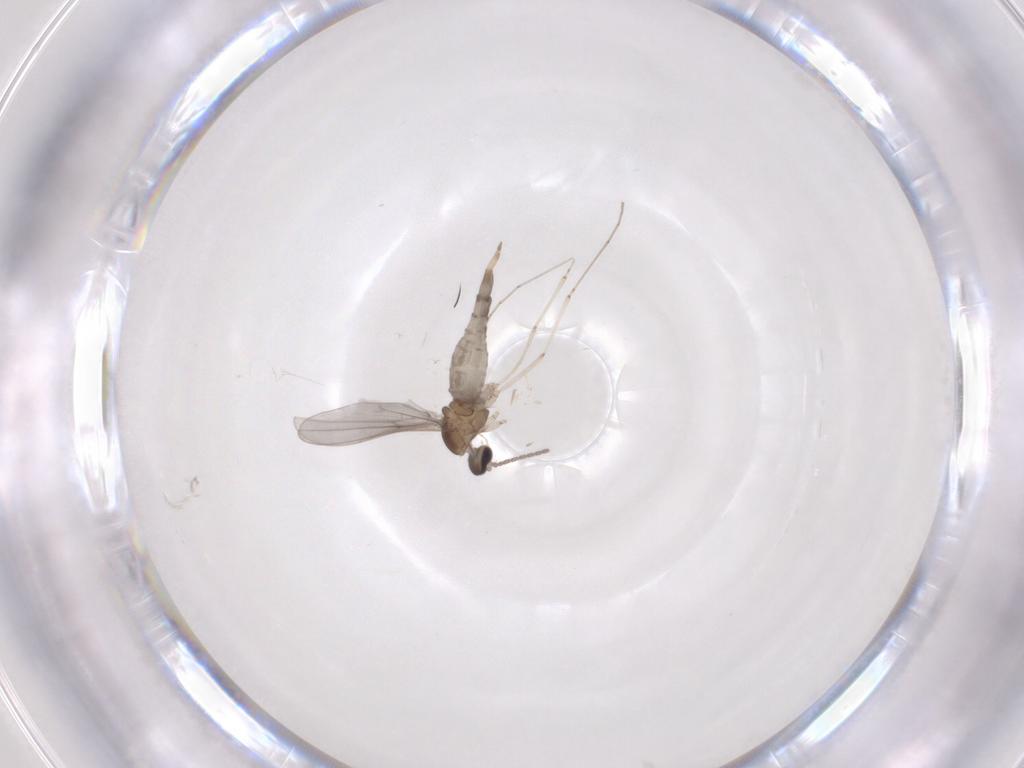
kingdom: Animalia
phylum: Arthropoda
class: Insecta
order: Diptera
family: Cecidomyiidae
